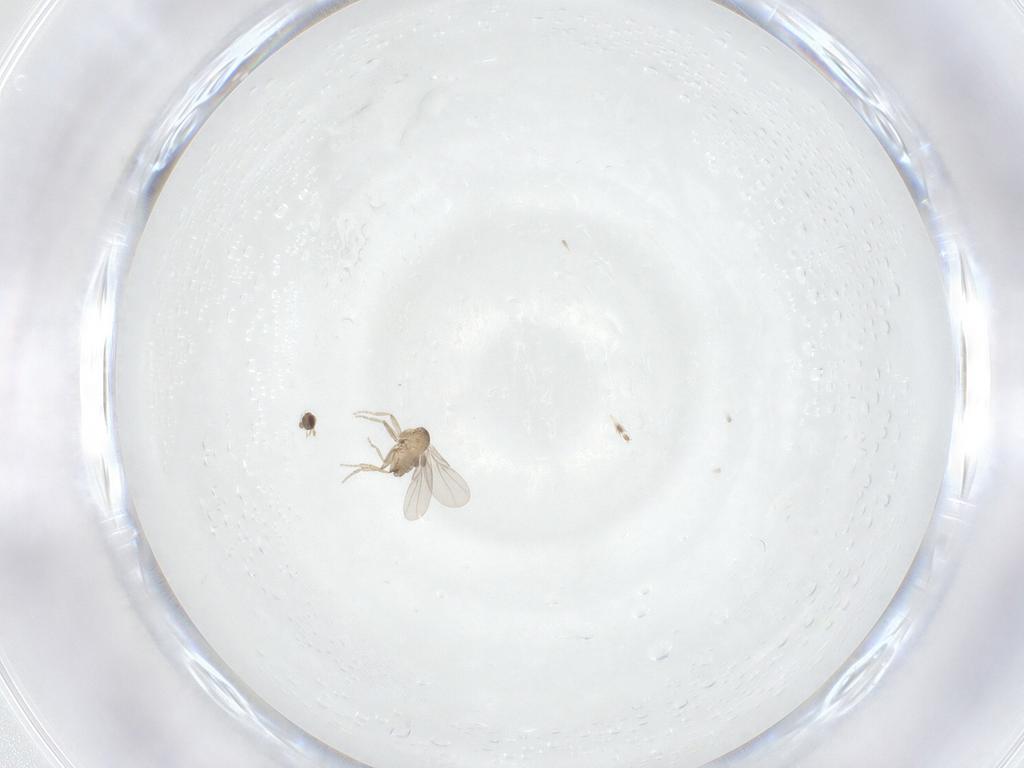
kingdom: Animalia
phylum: Arthropoda
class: Insecta
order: Diptera
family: Chironomidae
